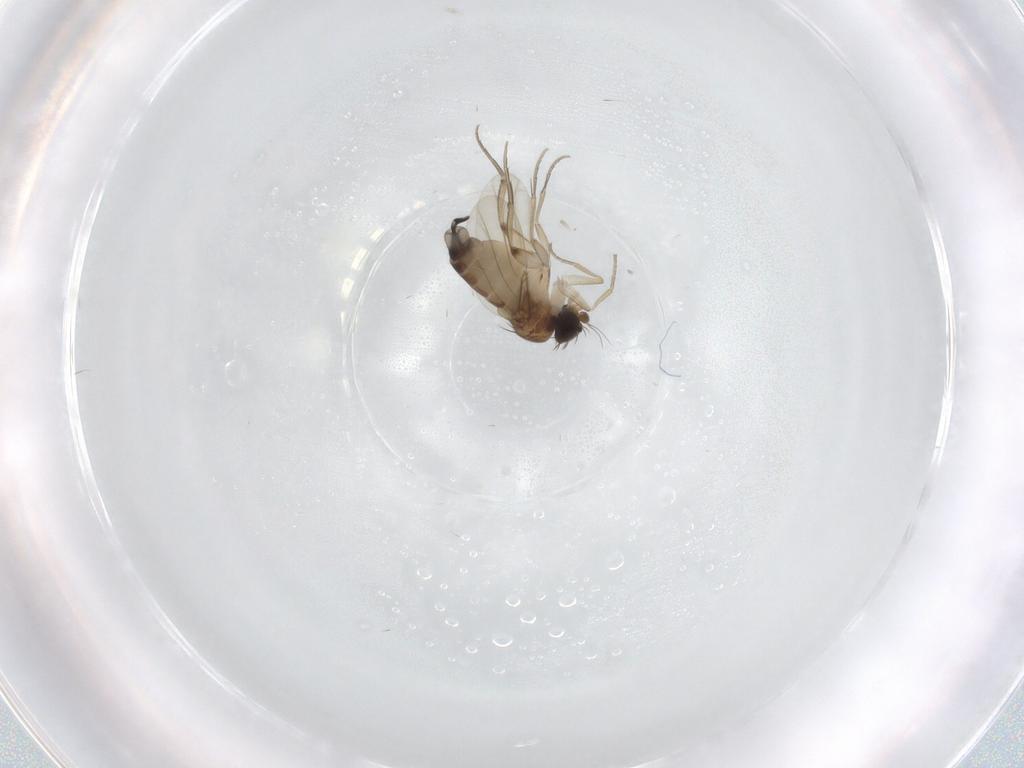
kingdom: Animalia
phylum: Arthropoda
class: Insecta
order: Diptera
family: Phoridae
